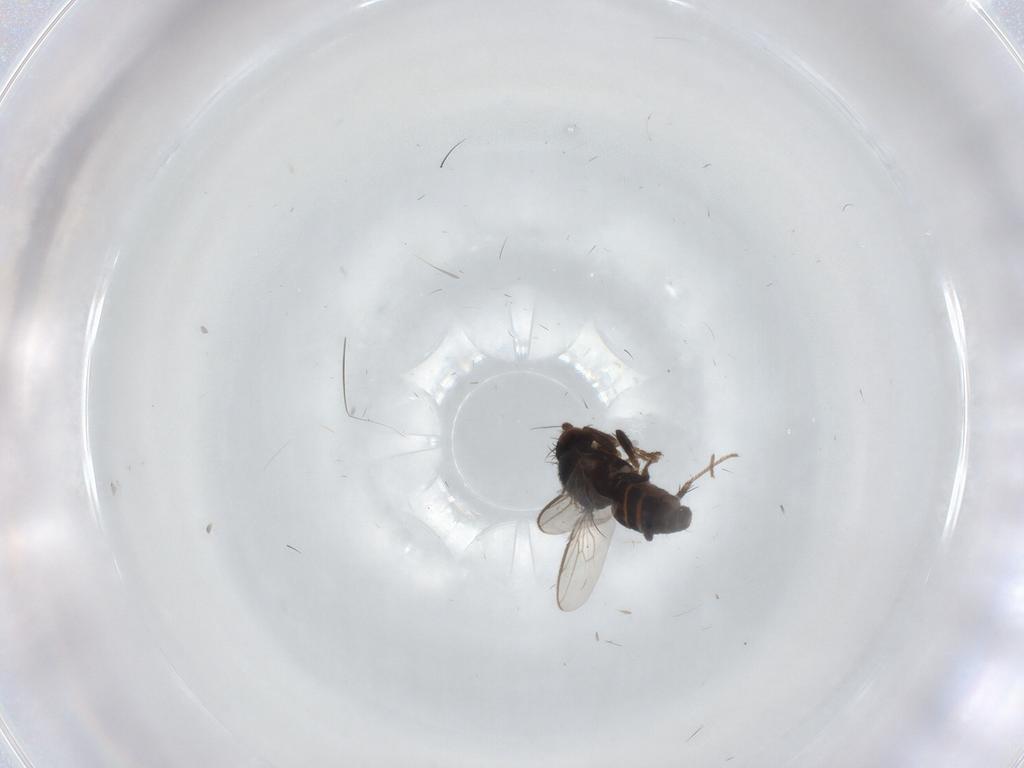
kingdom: Animalia
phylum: Arthropoda
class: Insecta
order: Diptera
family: Sphaeroceridae
